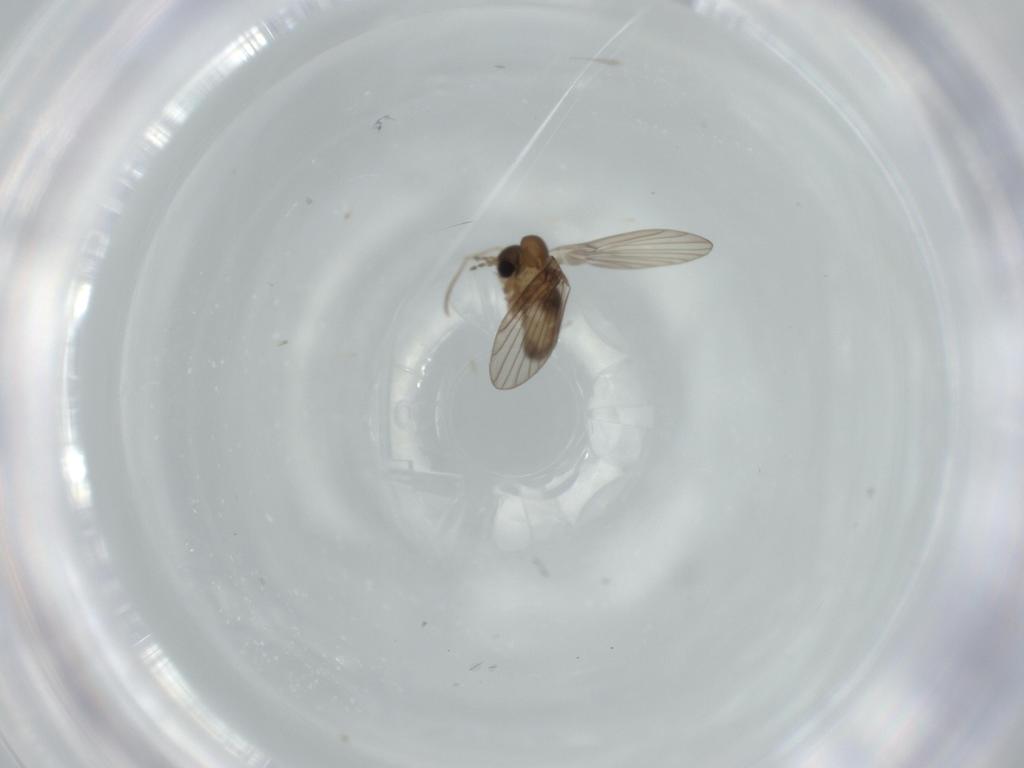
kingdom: Animalia
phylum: Arthropoda
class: Insecta
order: Diptera
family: Psychodidae
